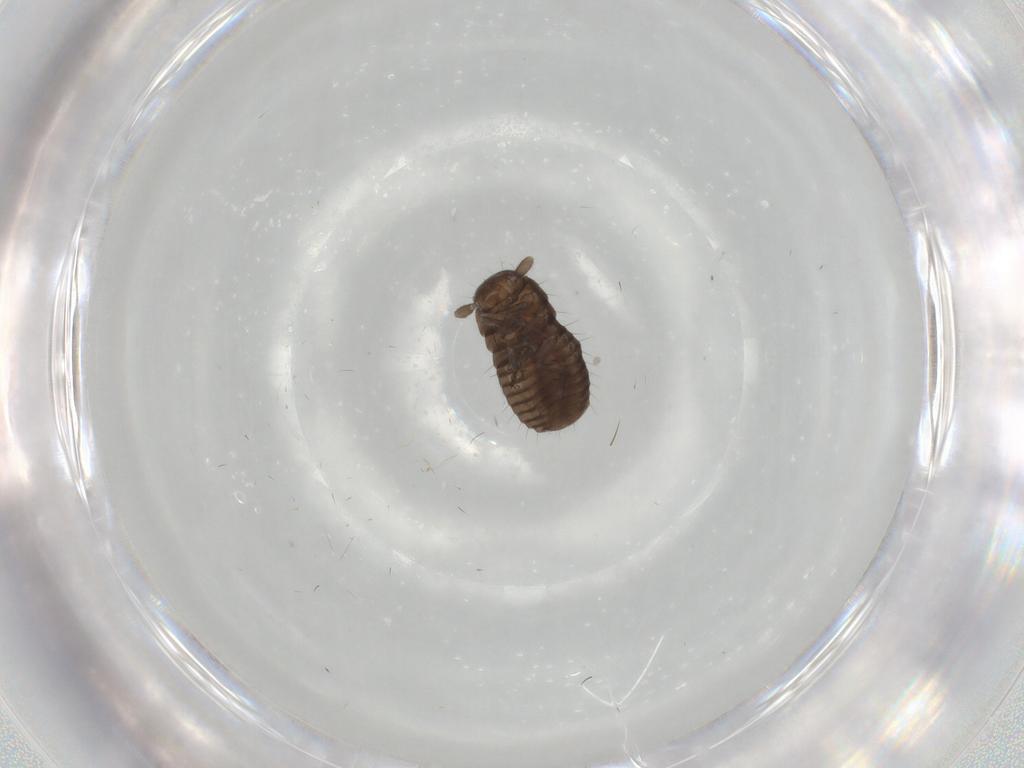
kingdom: Animalia
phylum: Arthropoda
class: Insecta
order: Coleoptera
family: Tenebrionidae
